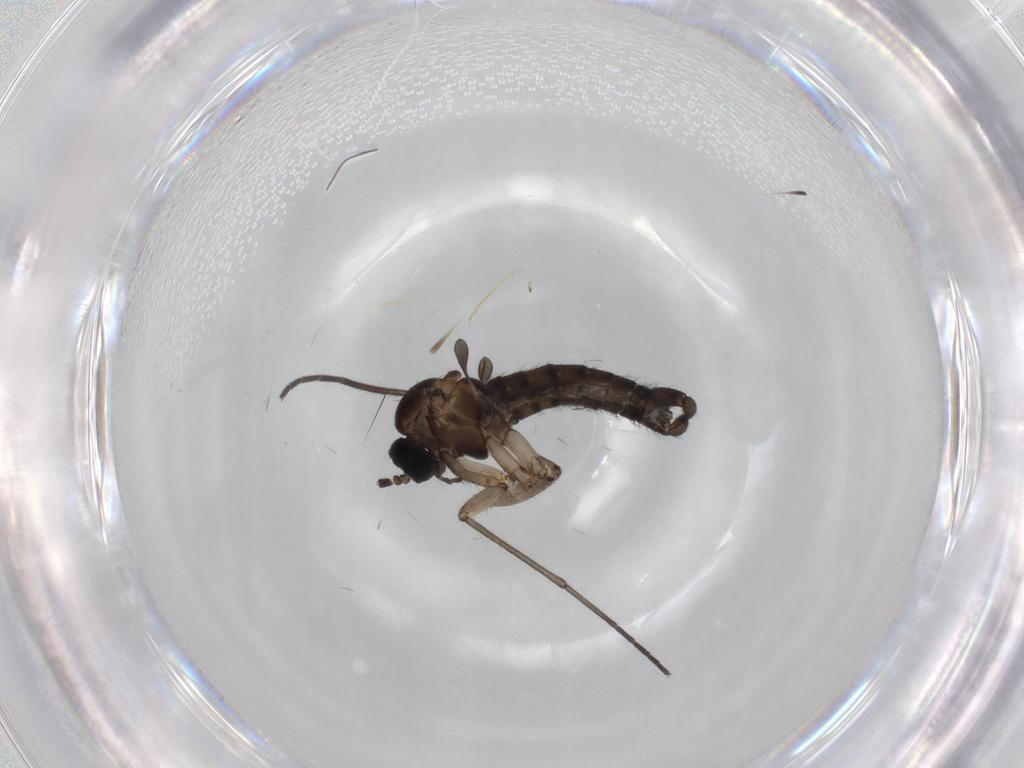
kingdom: Animalia
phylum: Arthropoda
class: Insecta
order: Diptera
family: Sciaridae
